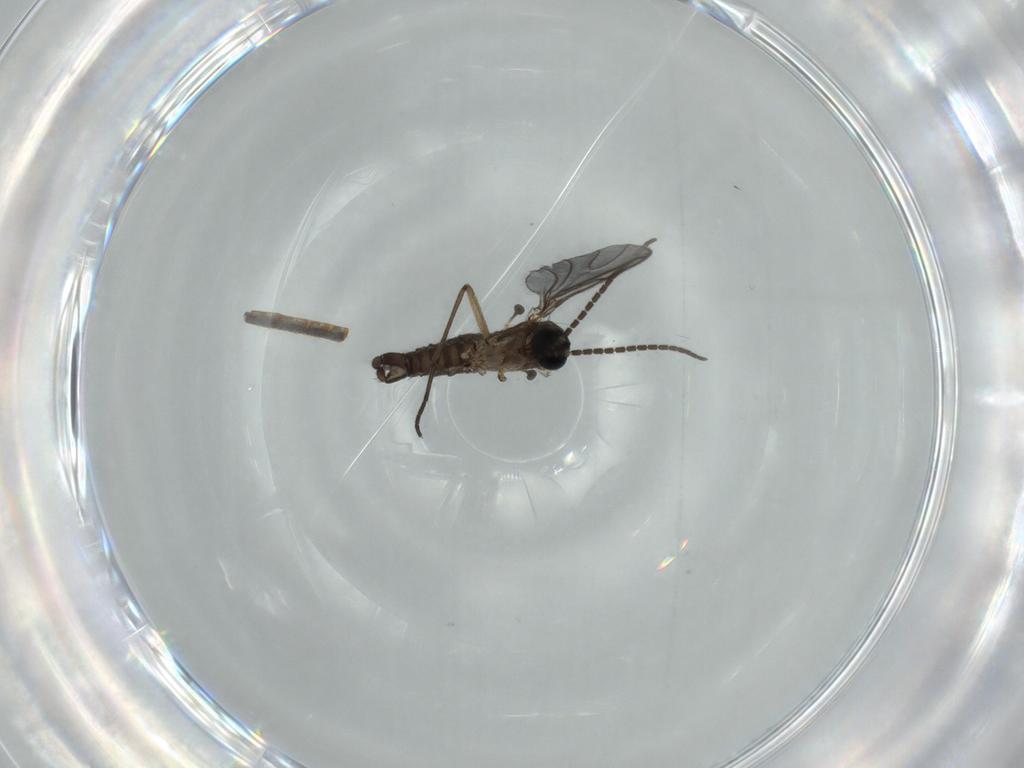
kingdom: Animalia
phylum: Arthropoda
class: Insecta
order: Diptera
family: Sciaridae
